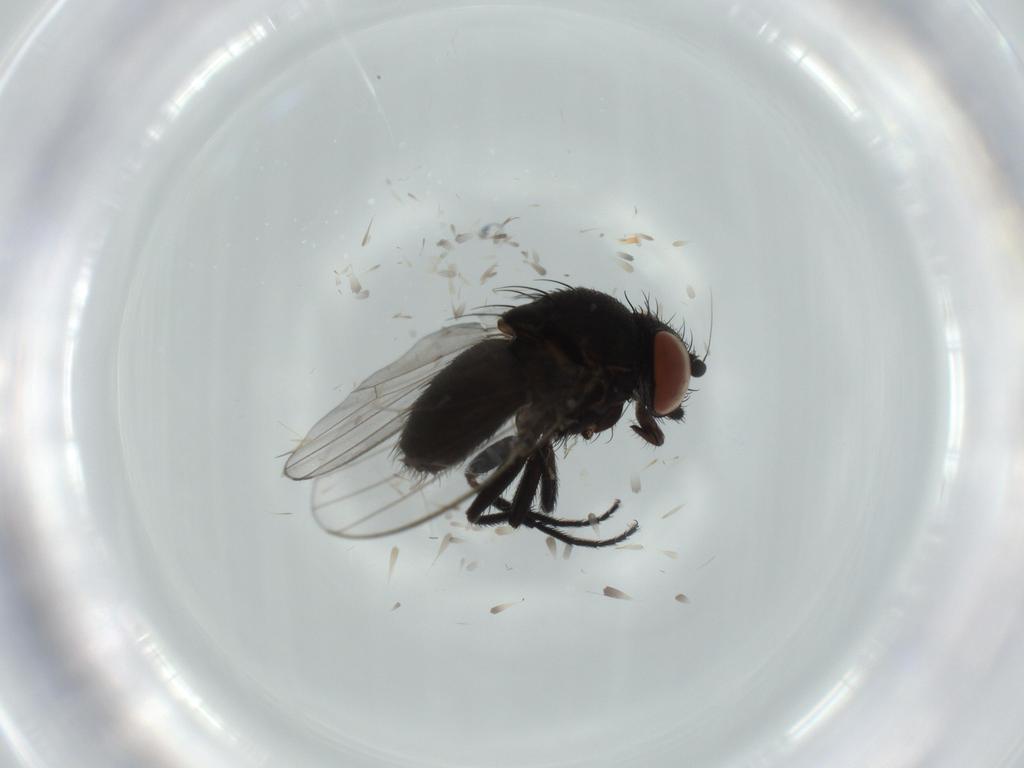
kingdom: Animalia
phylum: Arthropoda
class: Insecta
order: Diptera
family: Milichiidae
